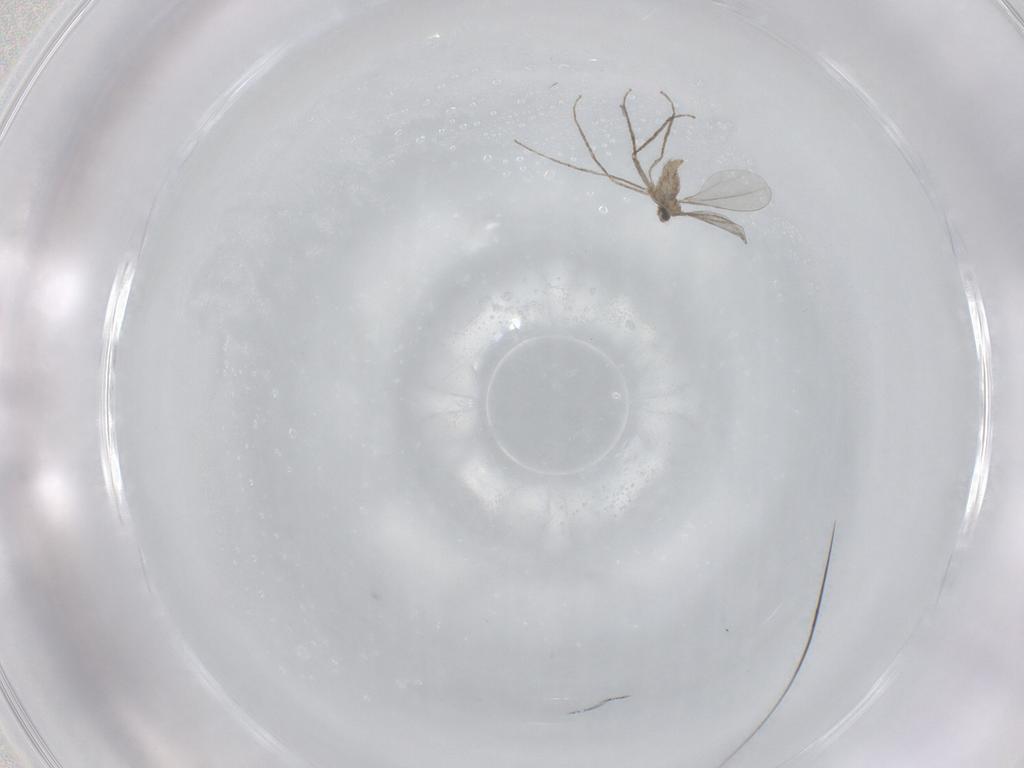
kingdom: Animalia
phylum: Arthropoda
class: Insecta
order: Diptera
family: Cecidomyiidae
